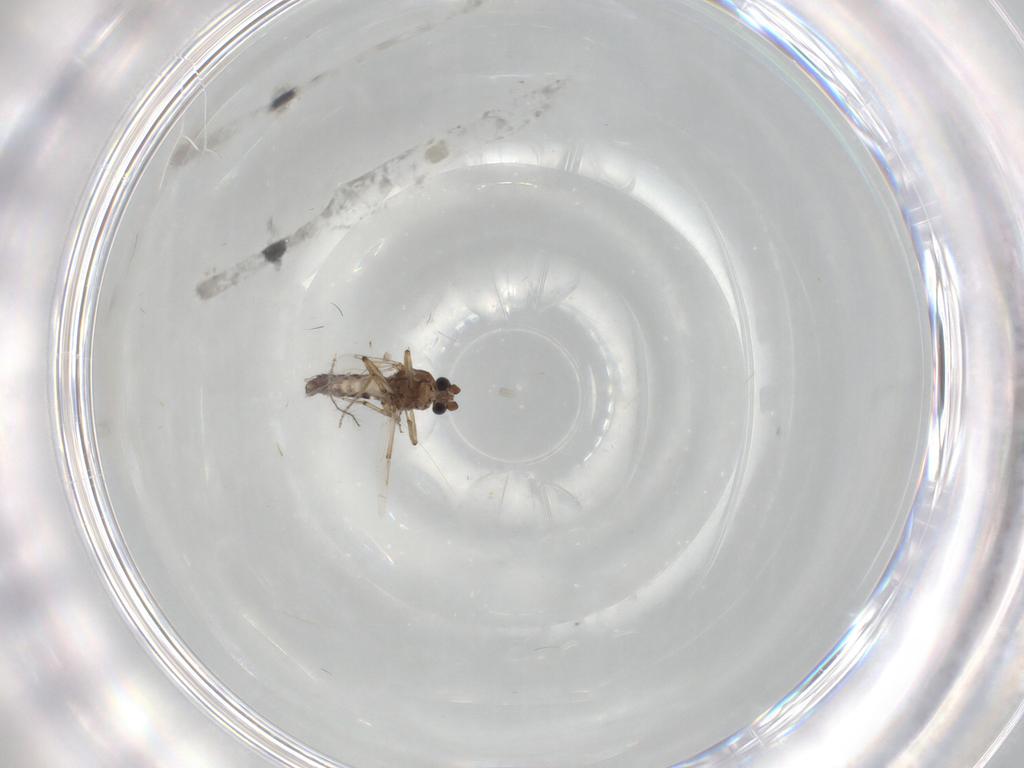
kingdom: Animalia
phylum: Arthropoda
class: Insecta
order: Diptera
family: Ceratopogonidae
